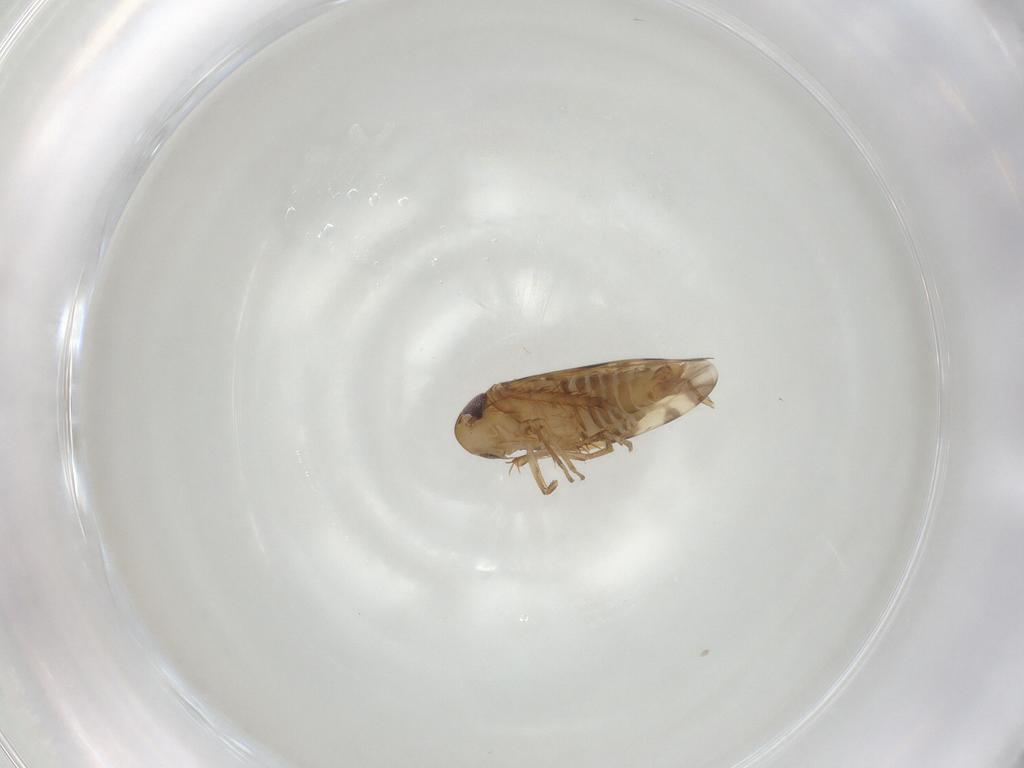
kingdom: Animalia
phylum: Arthropoda
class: Insecta
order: Hemiptera
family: Cicadellidae
